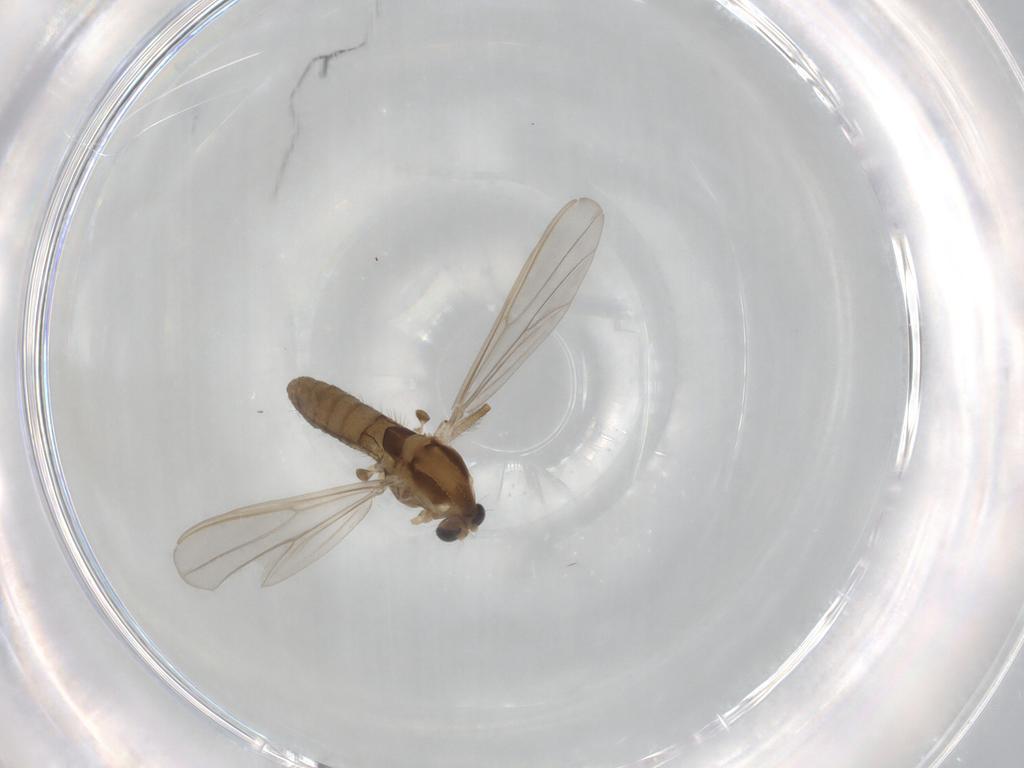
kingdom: Animalia
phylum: Arthropoda
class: Insecta
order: Diptera
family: Chironomidae
